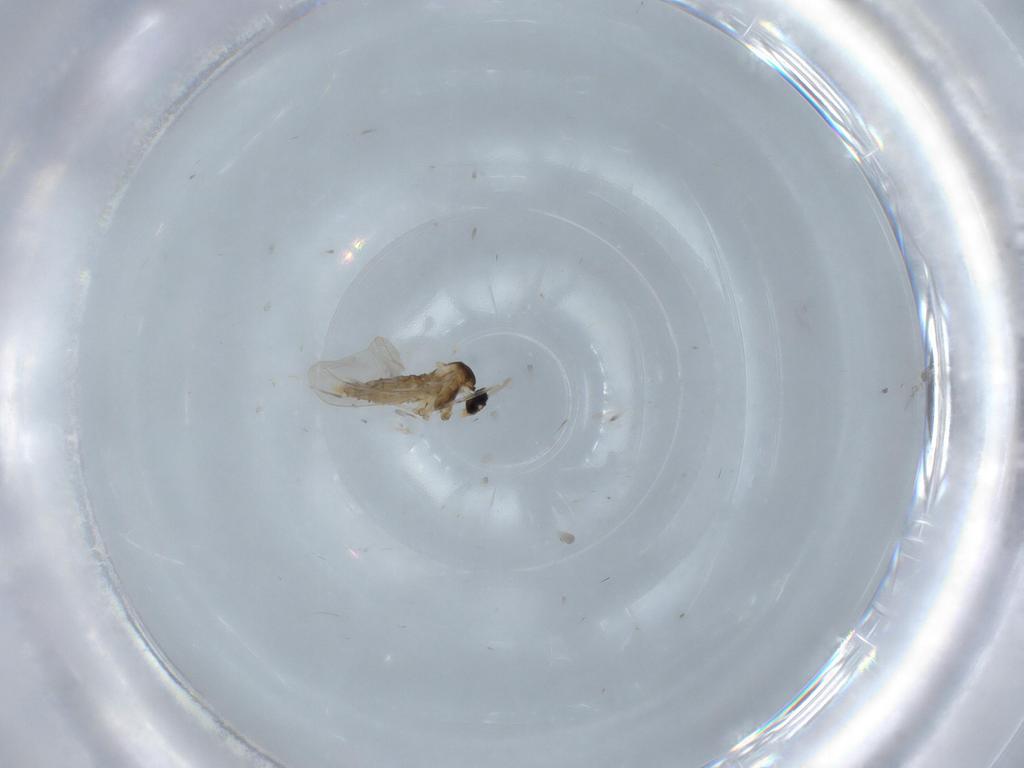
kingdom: Animalia
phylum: Arthropoda
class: Insecta
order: Diptera
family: Cecidomyiidae
